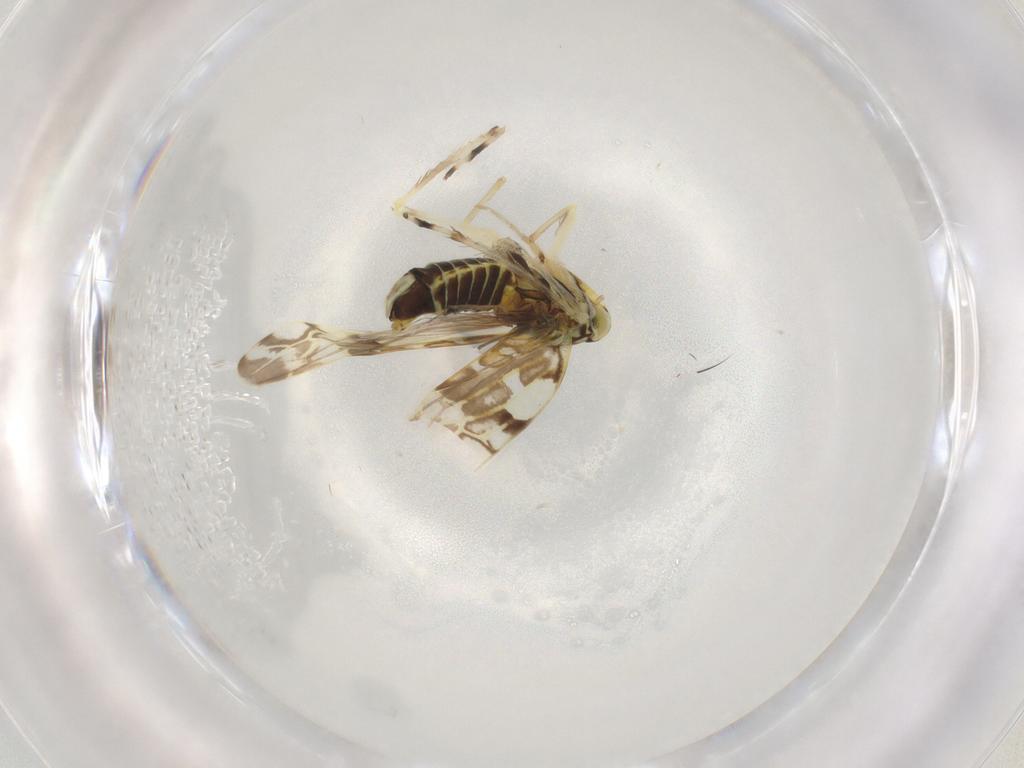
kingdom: Animalia
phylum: Arthropoda
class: Insecta
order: Hemiptera
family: Cicadellidae
